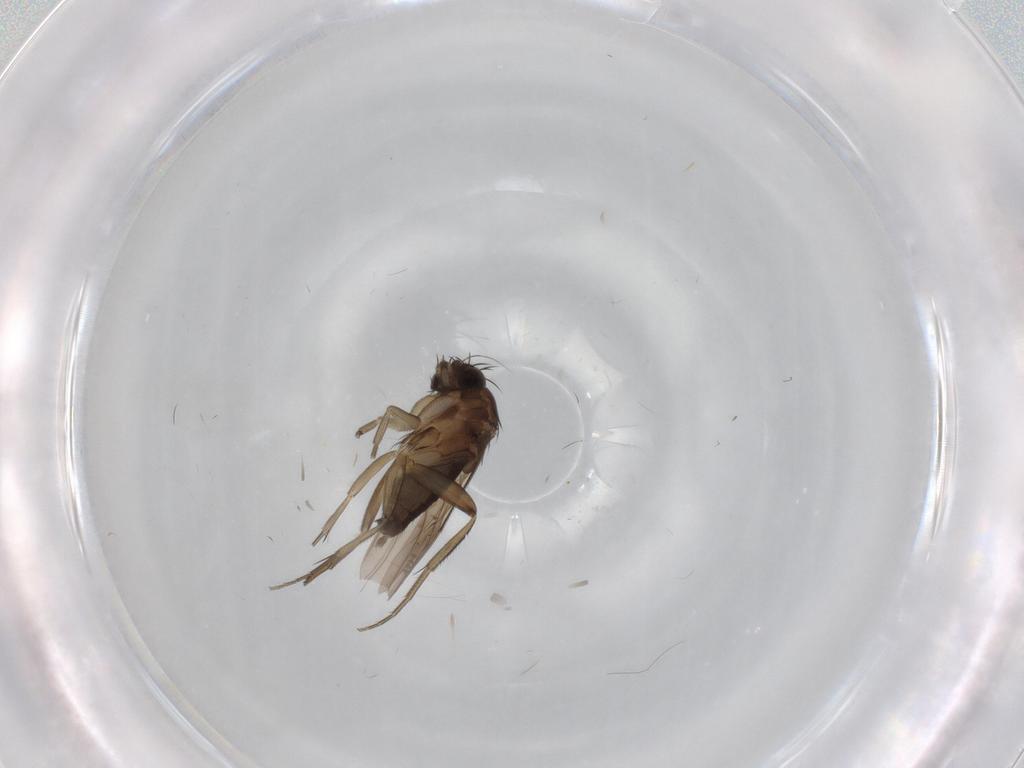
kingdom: Animalia
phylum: Arthropoda
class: Insecta
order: Diptera
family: Phoridae
